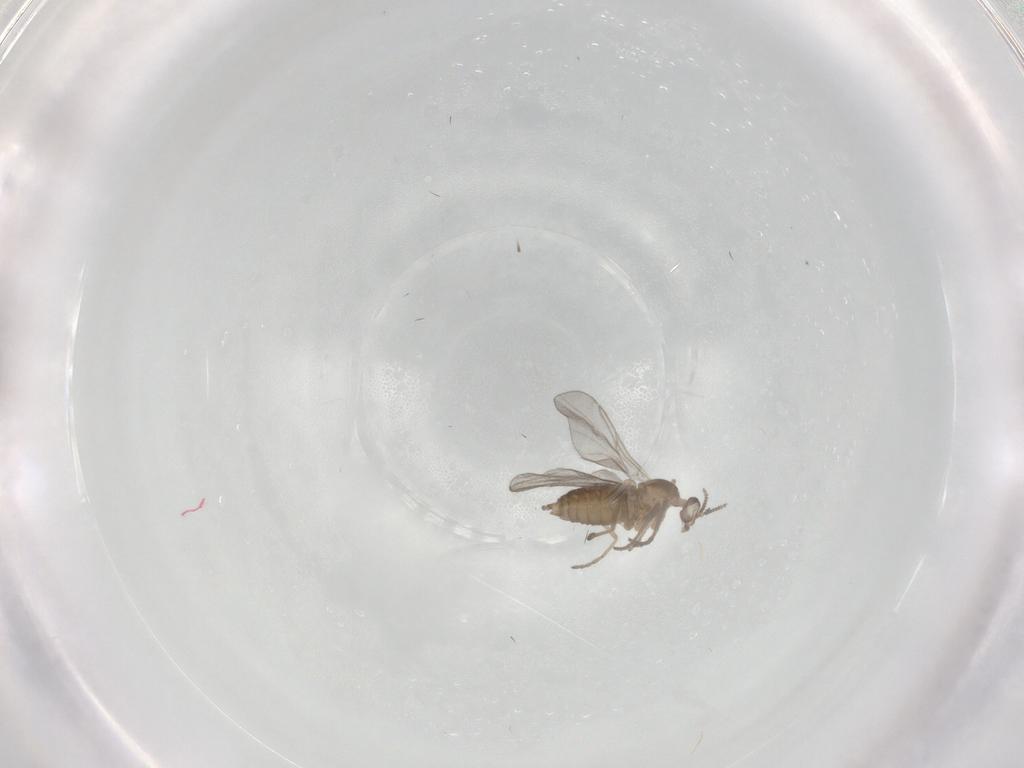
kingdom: Animalia
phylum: Arthropoda
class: Insecta
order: Diptera
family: Cecidomyiidae
